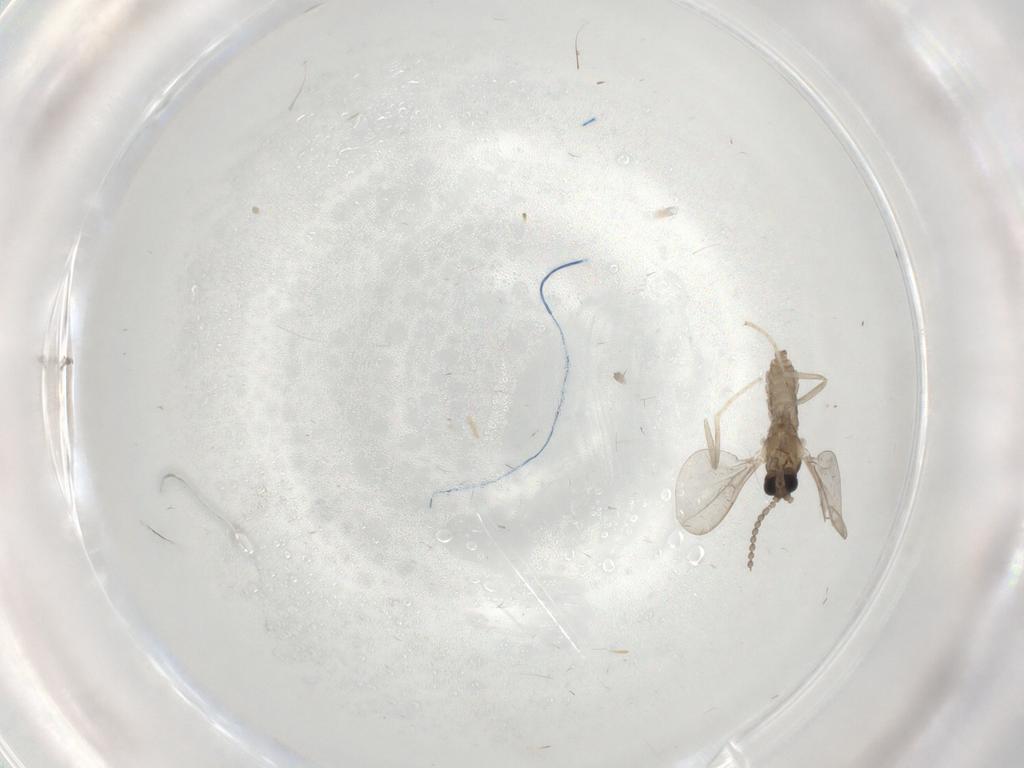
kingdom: Animalia
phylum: Arthropoda
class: Insecta
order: Diptera
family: Cecidomyiidae
